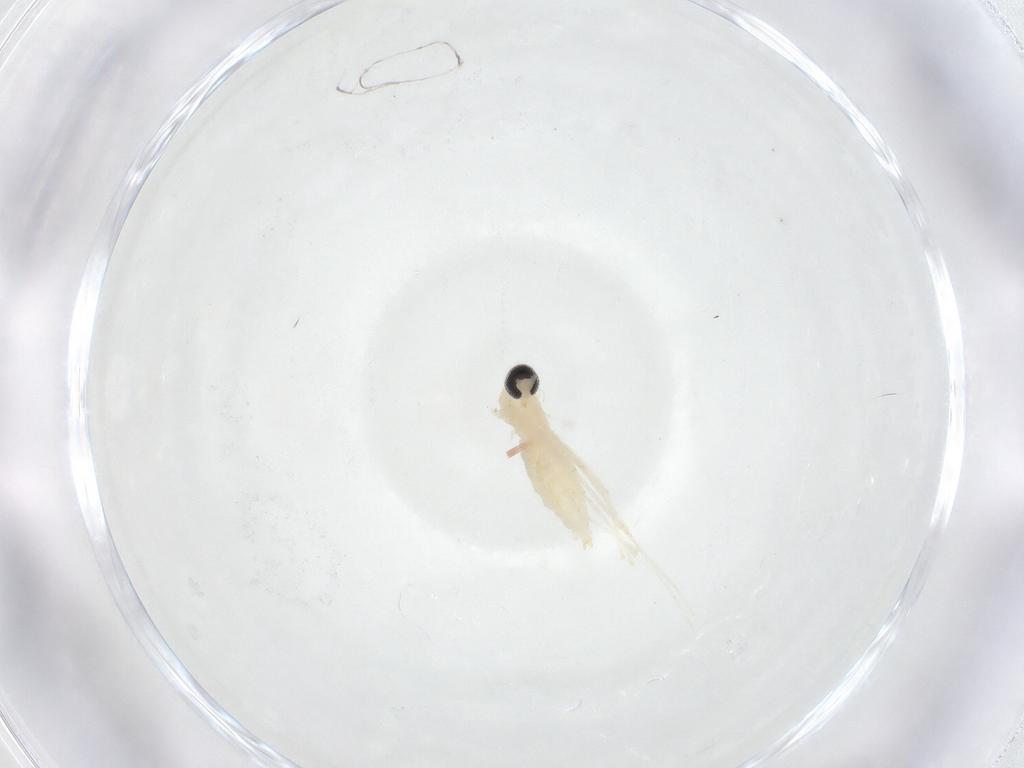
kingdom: Animalia
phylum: Arthropoda
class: Insecta
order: Diptera
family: Cecidomyiidae
